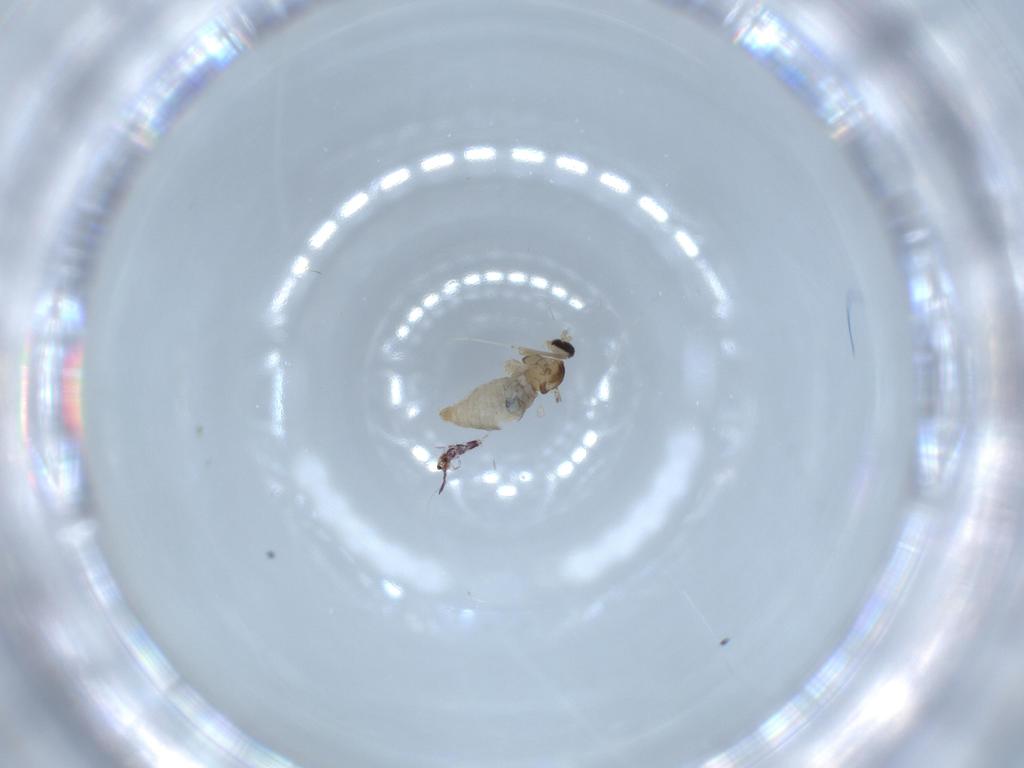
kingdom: Animalia
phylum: Arthropoda
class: Insecta
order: Diptera
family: Cecidomyiidae
